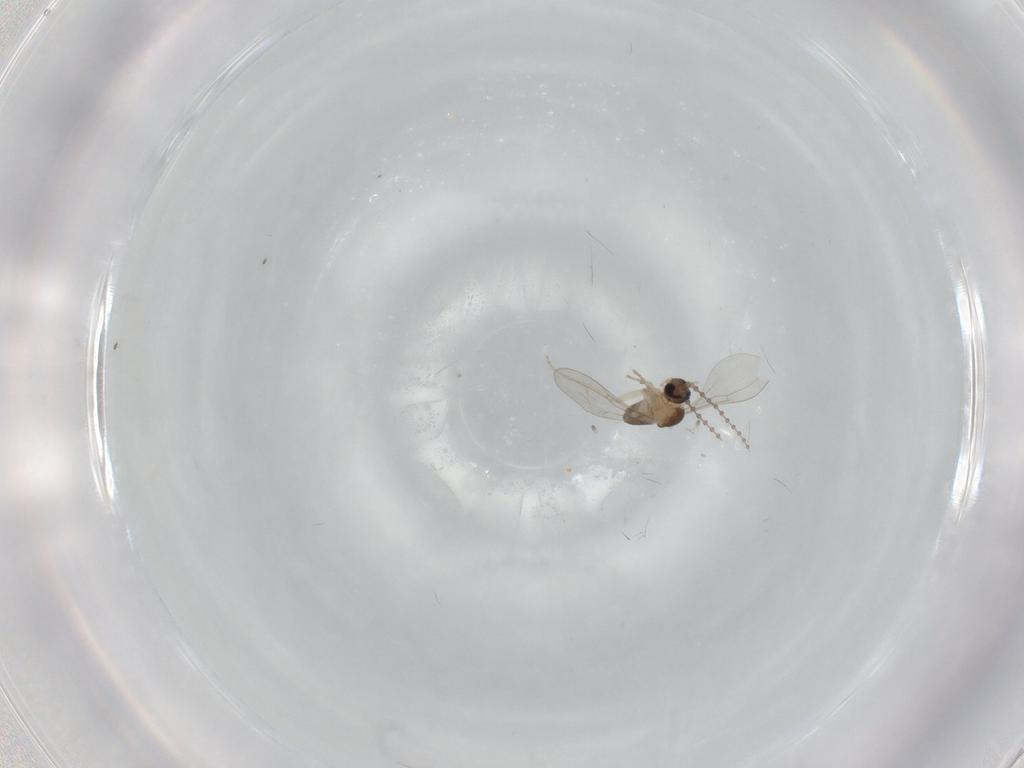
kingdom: Animalia
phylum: Arthropoda
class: Insecta
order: Diptera
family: Cecidomyiidae
